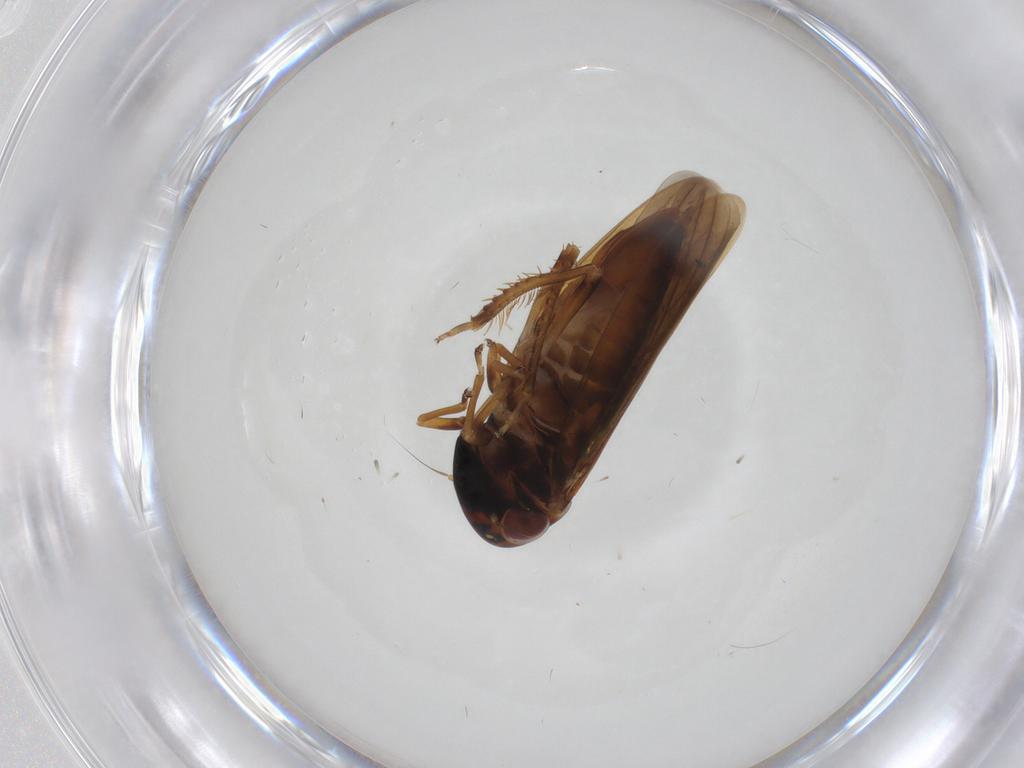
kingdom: Animalia
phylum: Arthropoda
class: Insecta
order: Hemiptera
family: Cicadellidae
